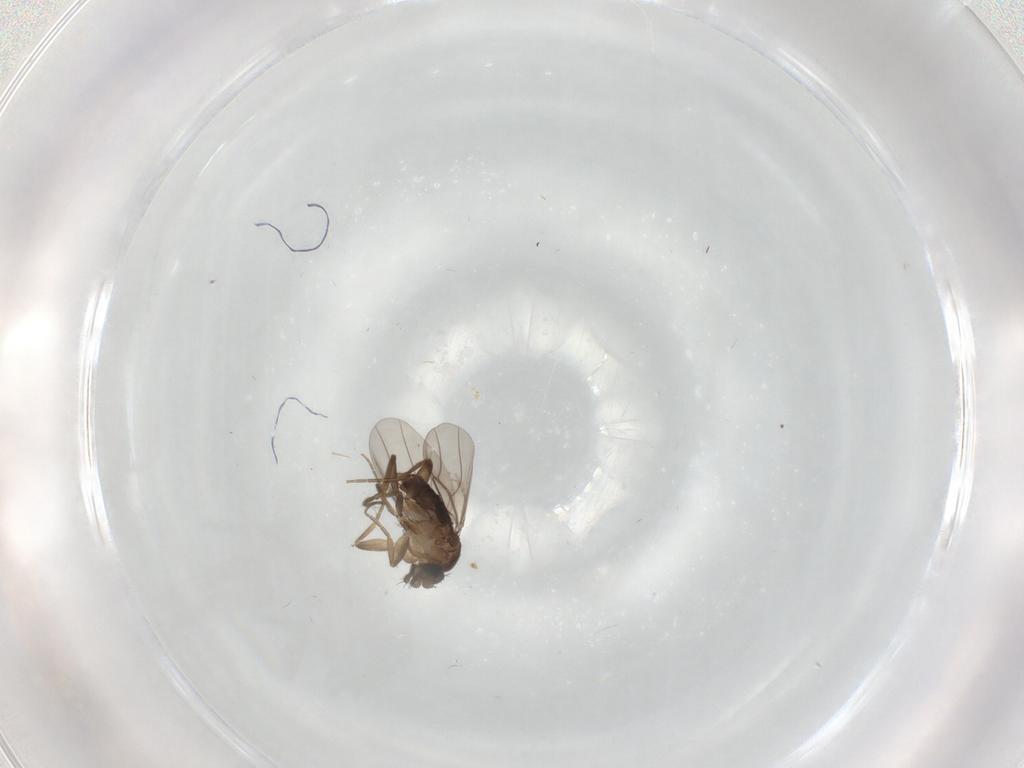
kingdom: Animalia
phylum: Arthropoda
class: Insecta
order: Diptera
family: Phoridae
